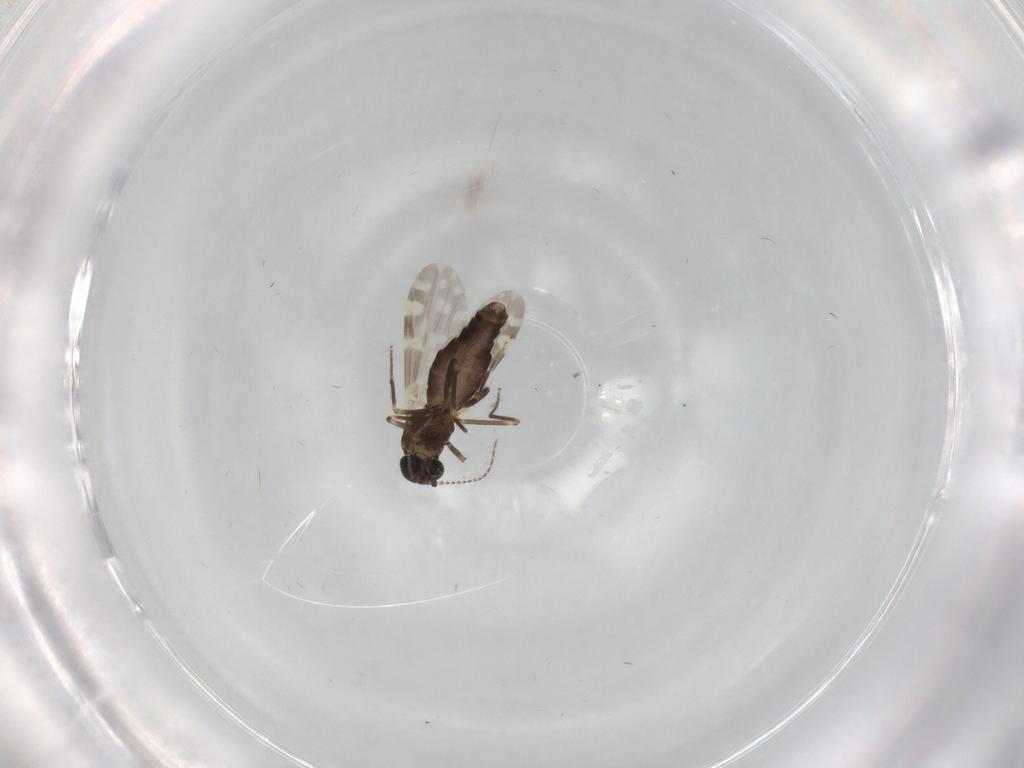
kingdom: Animalia
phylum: Arthropoda
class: Insecta
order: Diptera
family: Cecidomyiidae
